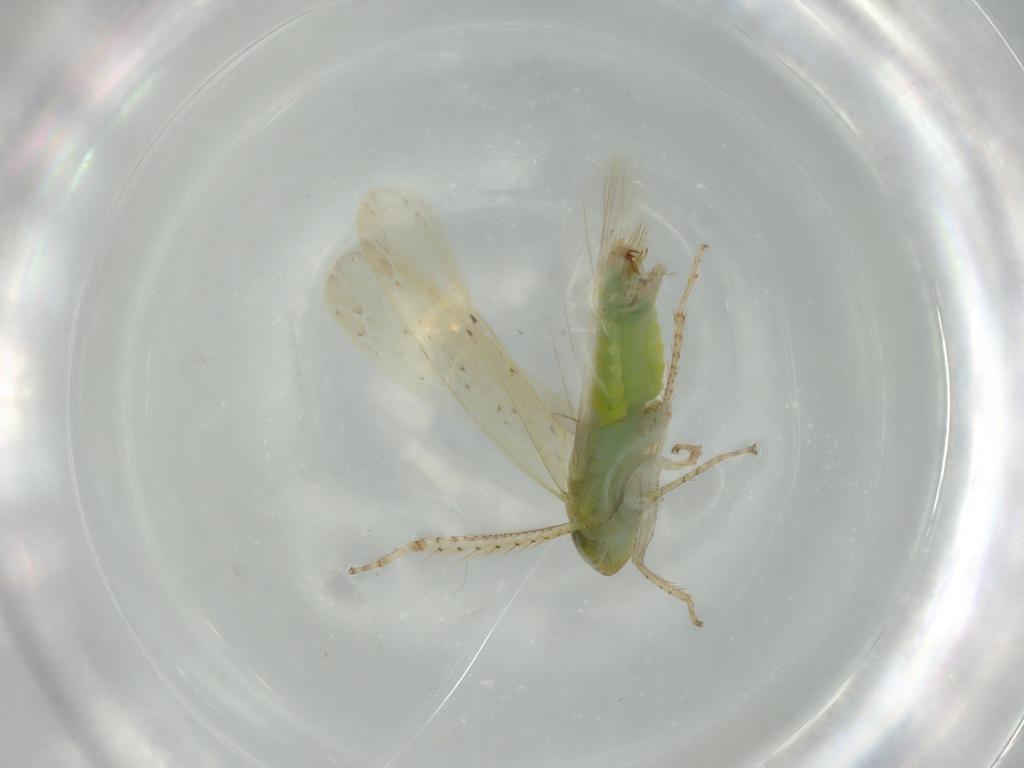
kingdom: Animalia
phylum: Arthropoda
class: Insecta
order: Hemiptera
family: Cicadellidae
